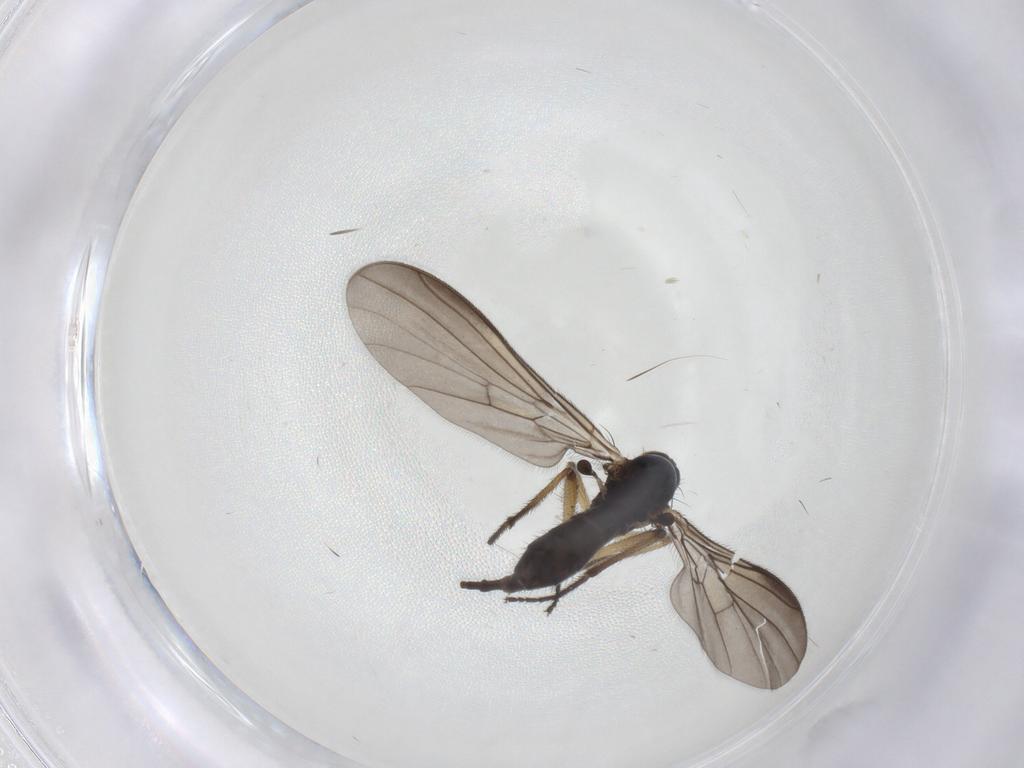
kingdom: Animalia
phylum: Arthropoda
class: Insecta
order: Diptera
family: Empididae
